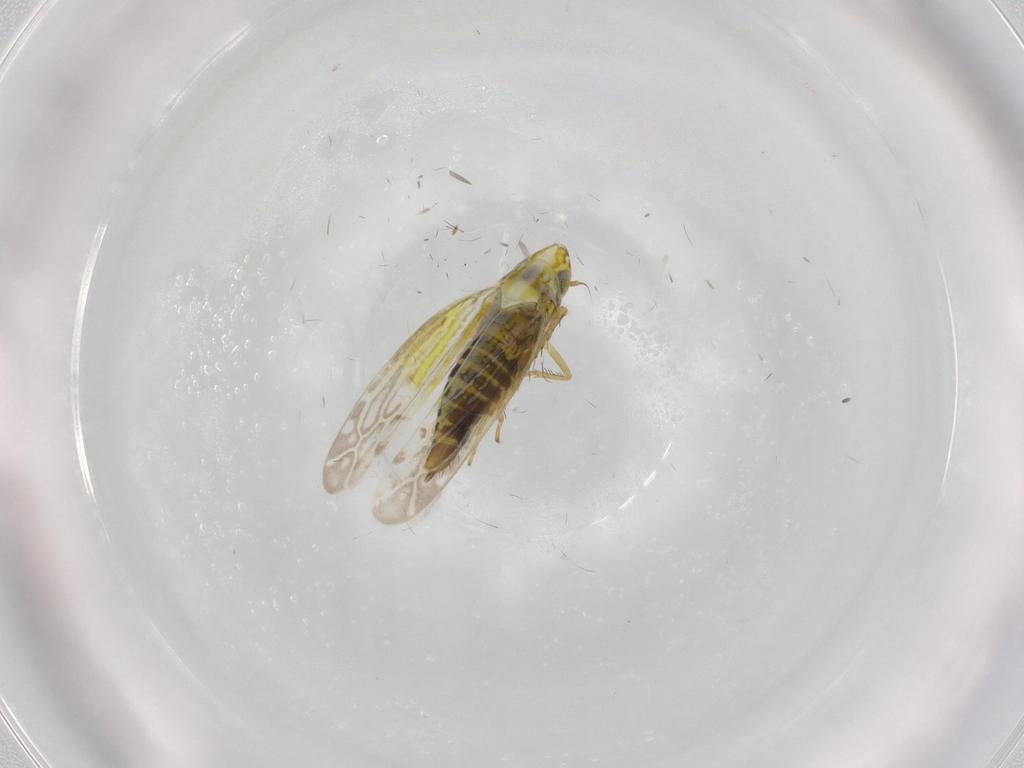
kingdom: Animalia
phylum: Arthropoda
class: Insecta
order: Hemiptera
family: Cicadellidae
